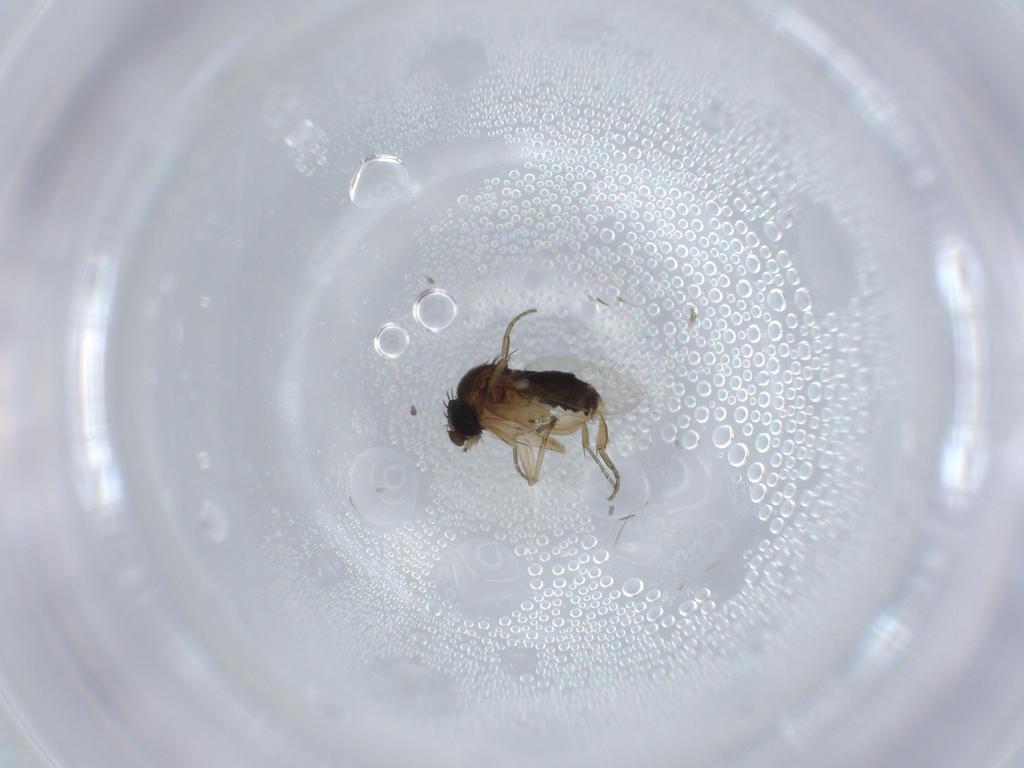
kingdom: Animalia
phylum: Arthropoda
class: Insecta
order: Diptera
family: Phoridae
